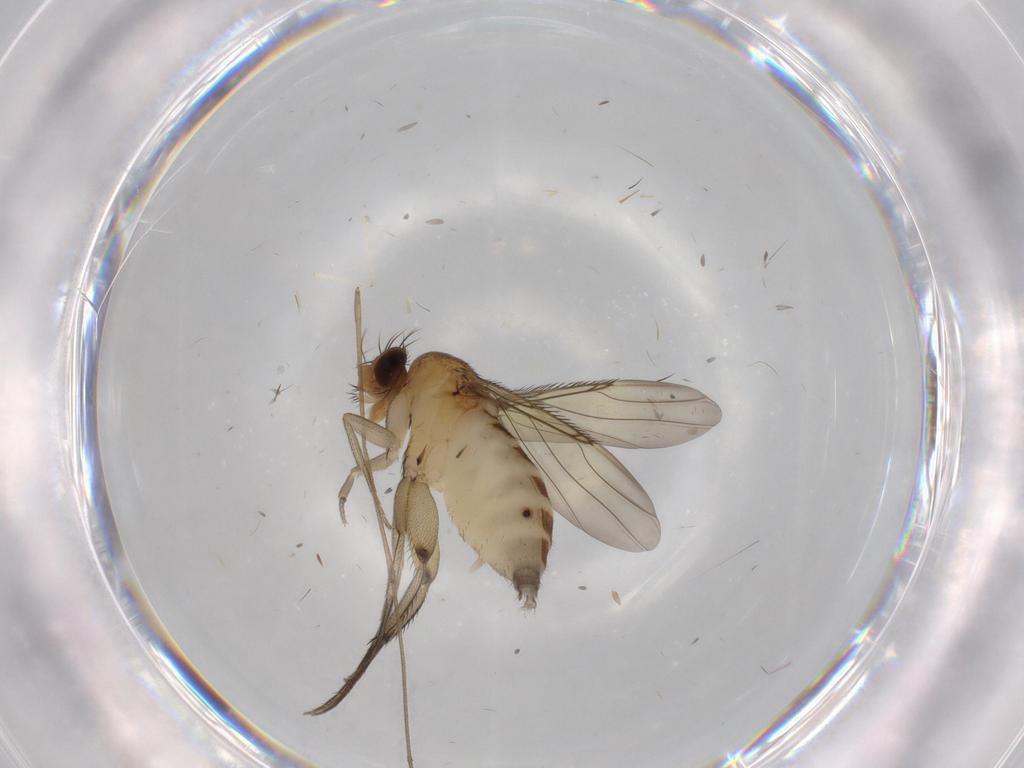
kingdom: Animalia
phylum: Arthropoda
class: Insecta
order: Diptera
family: Phoridae
